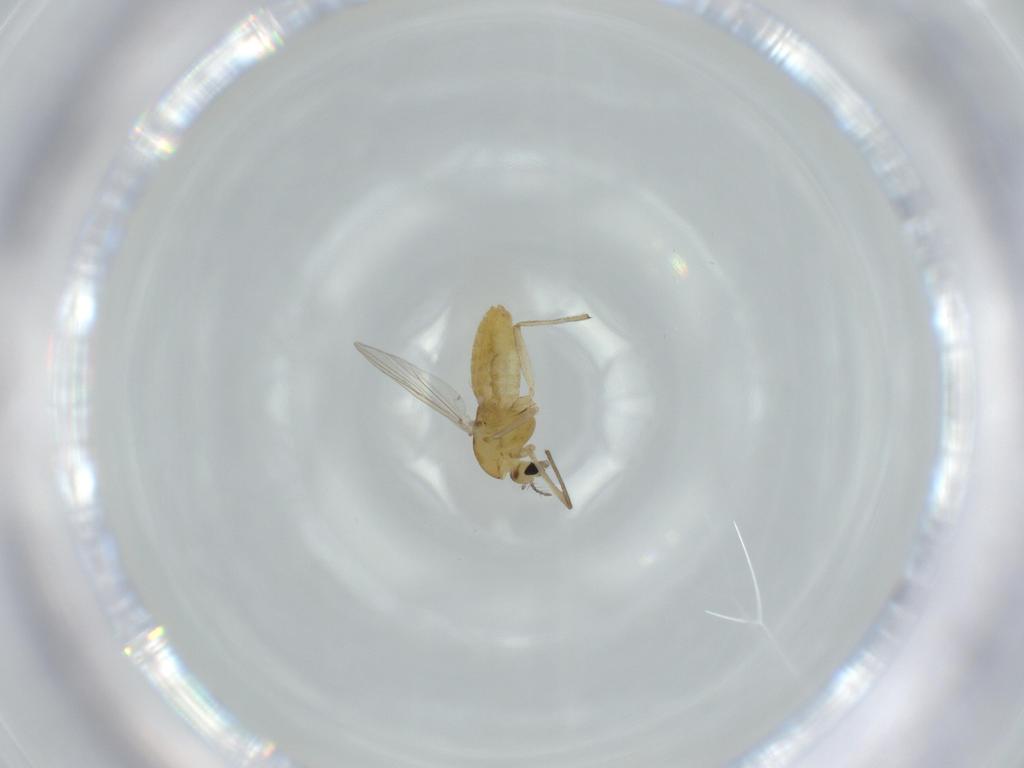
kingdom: Animalia
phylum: Arthropoda
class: Insecta
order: Diptera
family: Chironomidae
